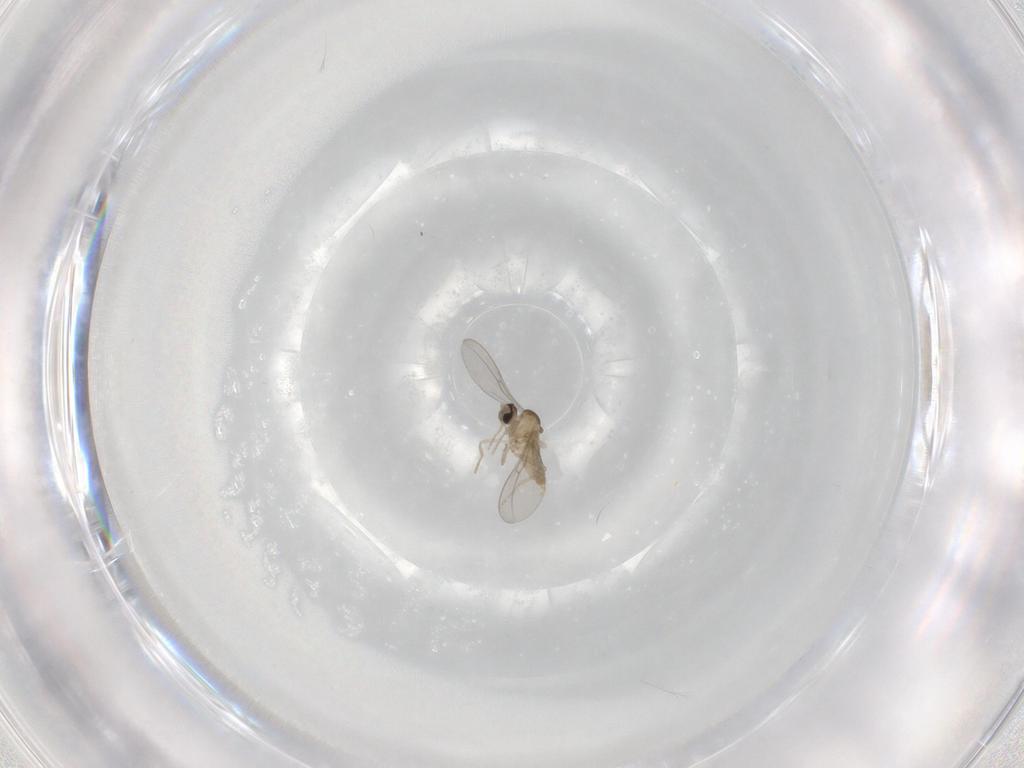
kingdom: Animalia
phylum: Arthropoda
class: Insecta
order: Diptera
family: Cecidomyiidae
